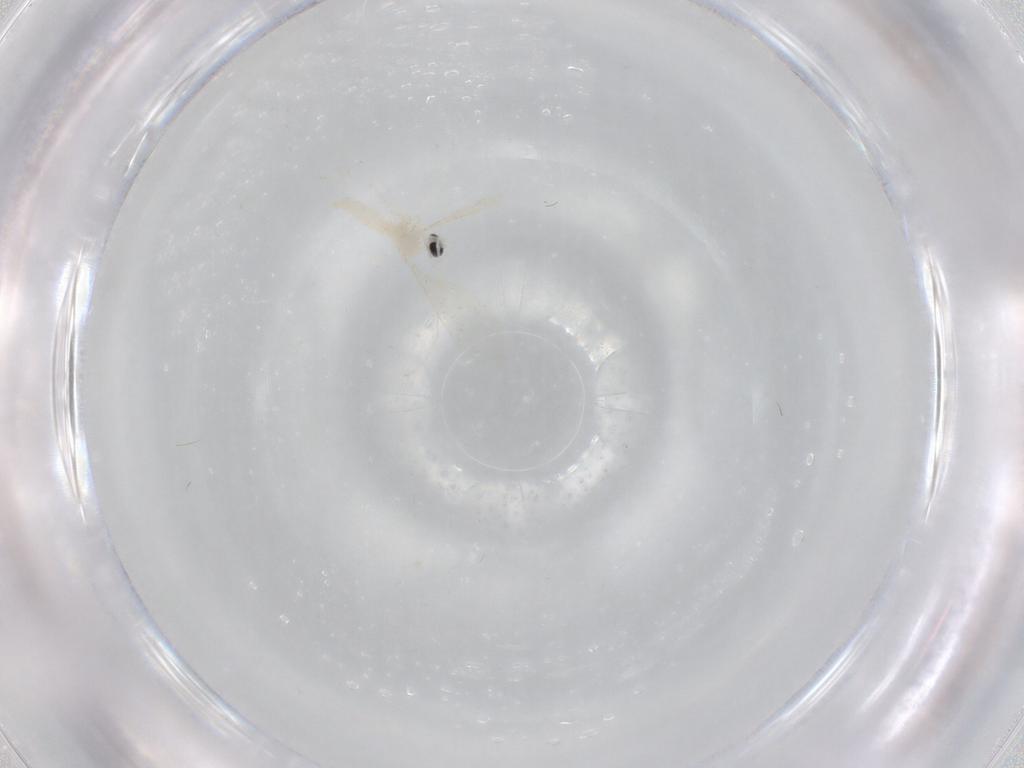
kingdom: Animalia
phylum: Arthropoda
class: Insecta
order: Diptera
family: Cecidomyiidae
